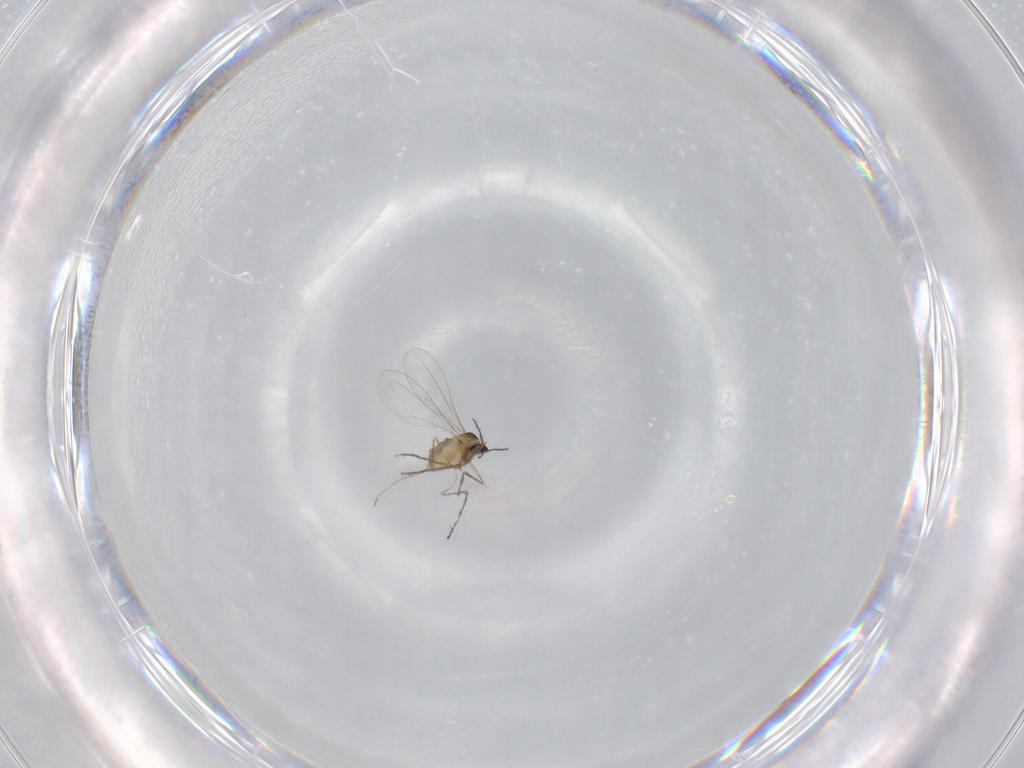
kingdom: Animalia
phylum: Arthropoda
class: Insecta
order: Diptera
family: Cecidomyiidae
